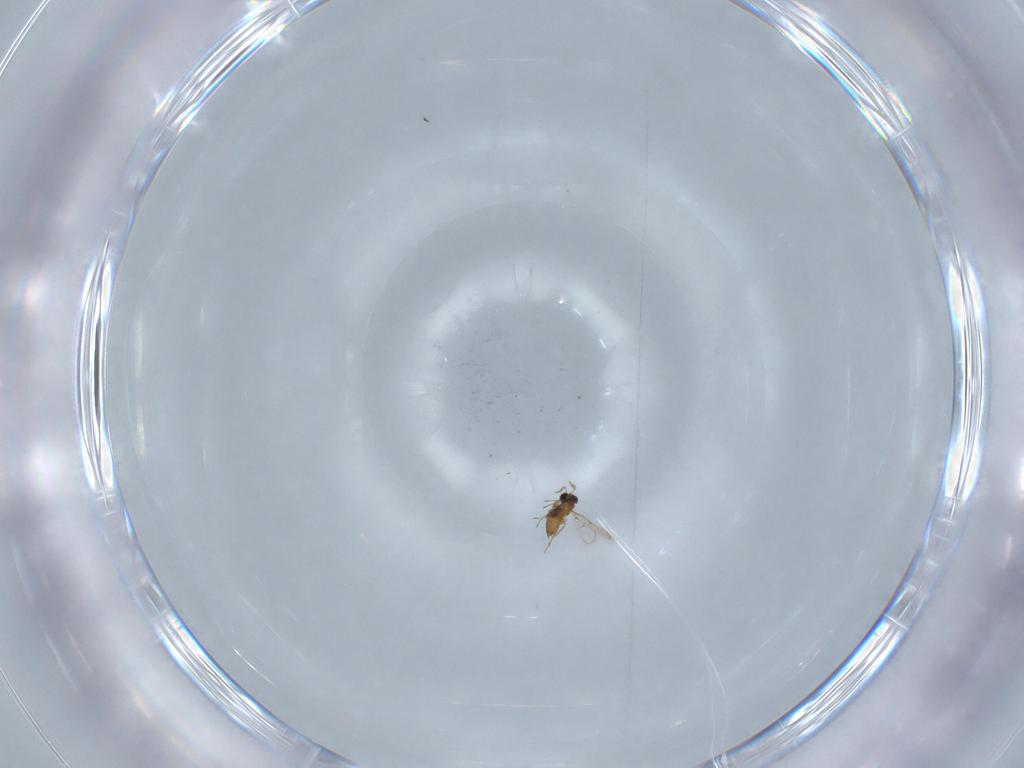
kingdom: Animalia
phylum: Arthropoda
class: Insecta
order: Hymenoptera
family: Trichogrammatidae
